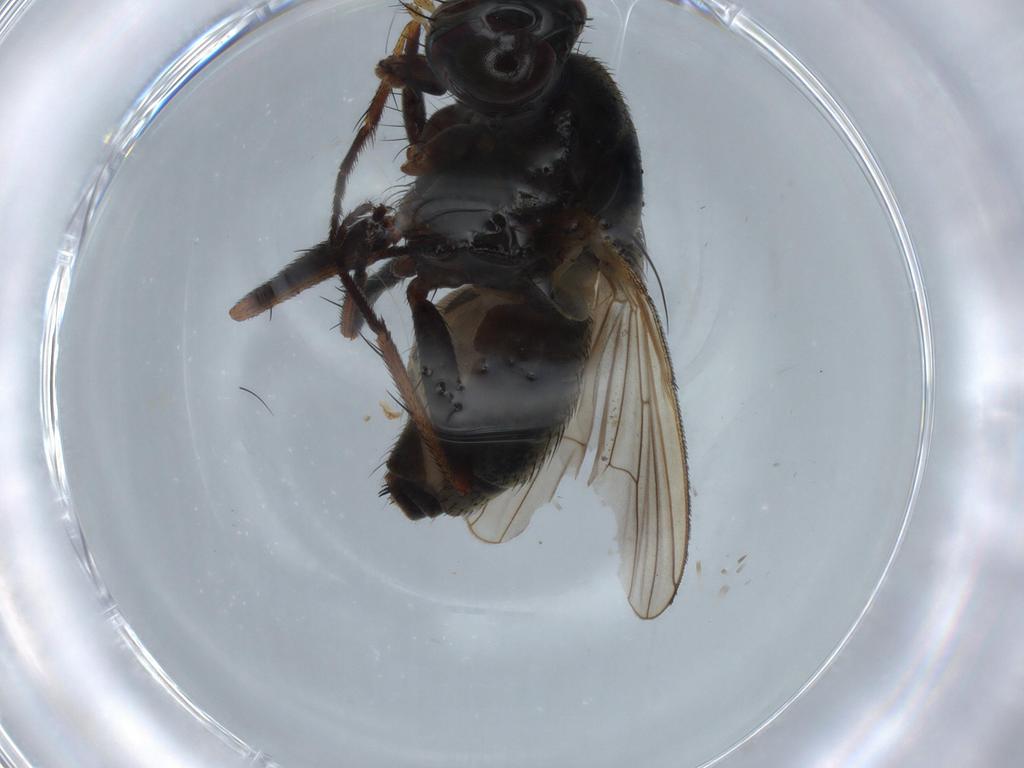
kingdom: Animalia
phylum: Arthropoda
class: Insecta
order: Diptera
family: Muscidae
